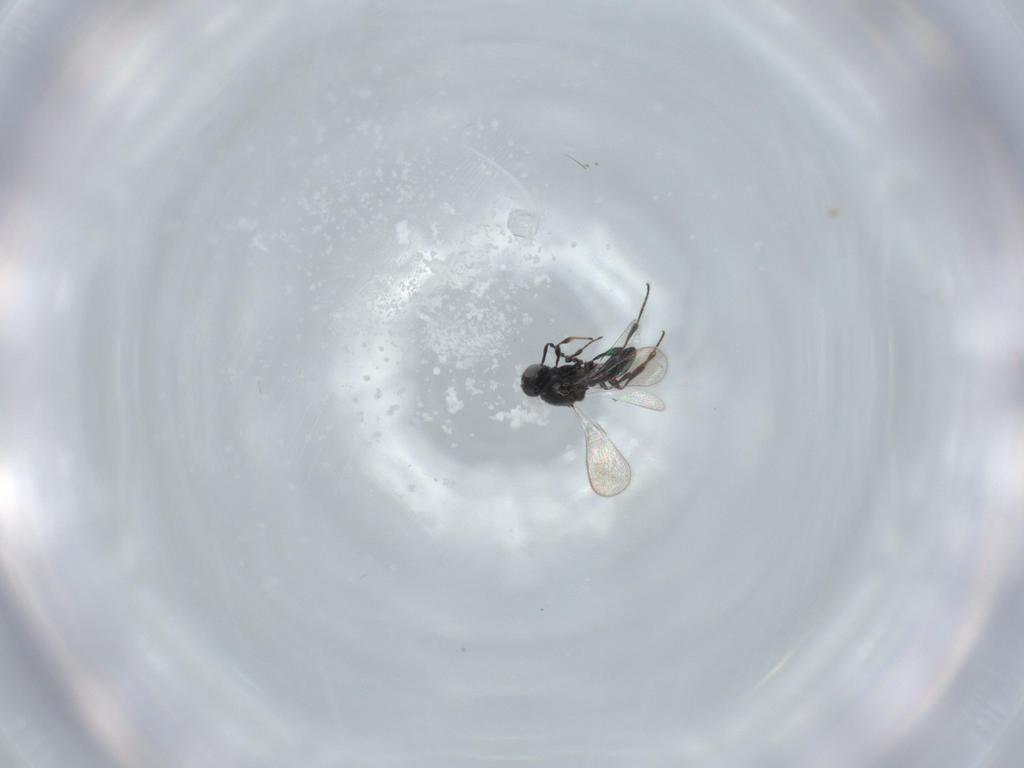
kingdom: Animalia
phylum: Arthropoda
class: Insecta
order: Diptera
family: Mythicomyiidae
